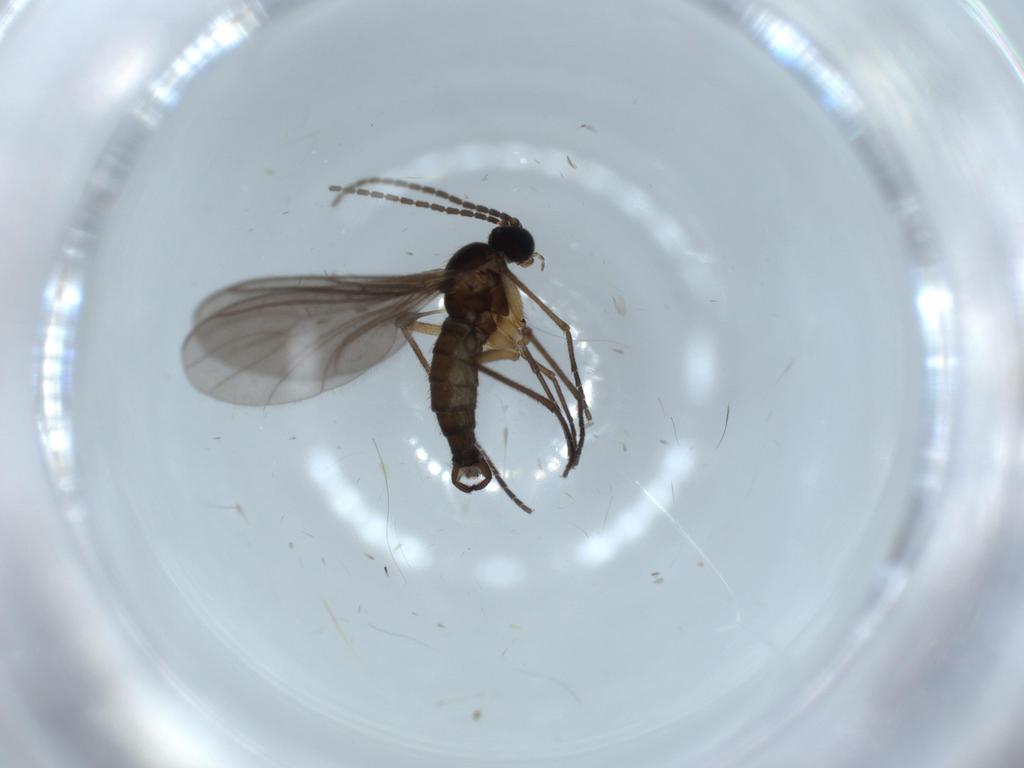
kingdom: Animalia
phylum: Arthropoda
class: Insecta
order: Diptera
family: Sciaridae
